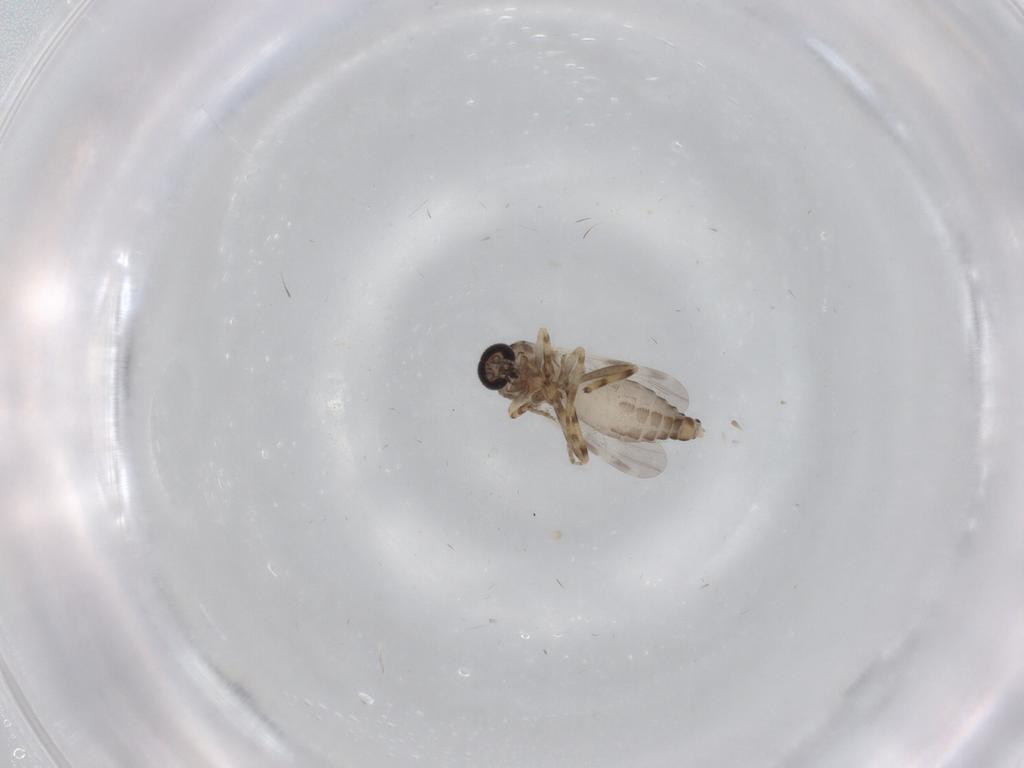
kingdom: Animalia
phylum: Arthropoda
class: Insecta
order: Diptera
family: Ceratopogonidae
